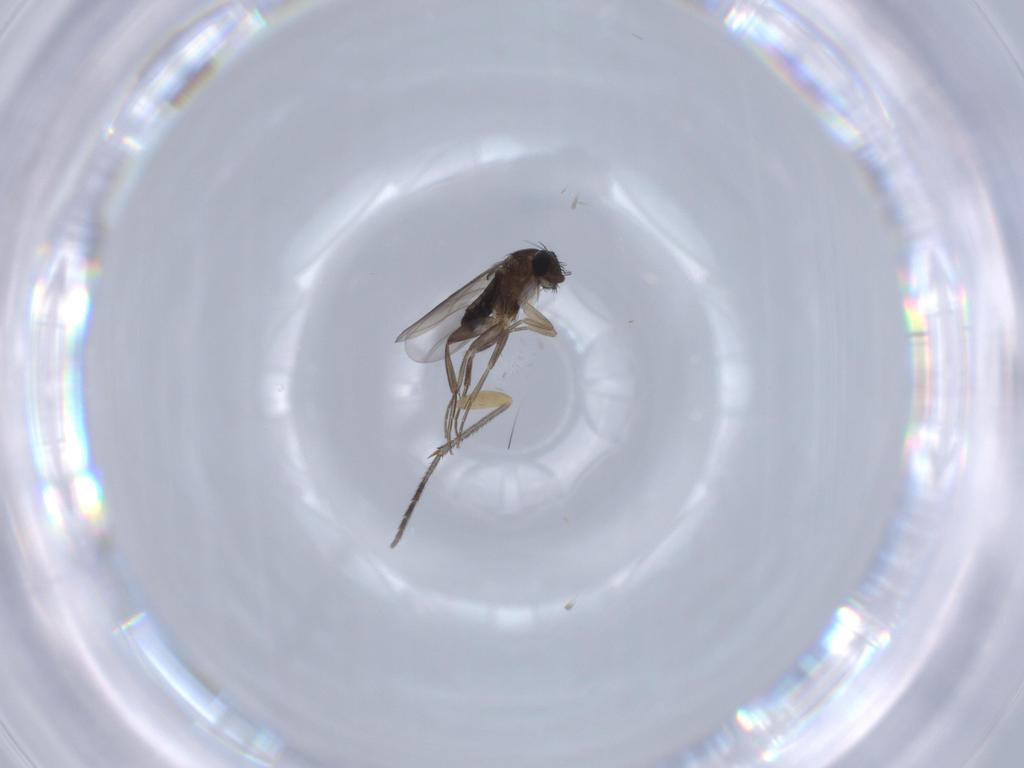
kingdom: Animalia
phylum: Arthropoda
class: Insecta
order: Diptera
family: Phoridae
